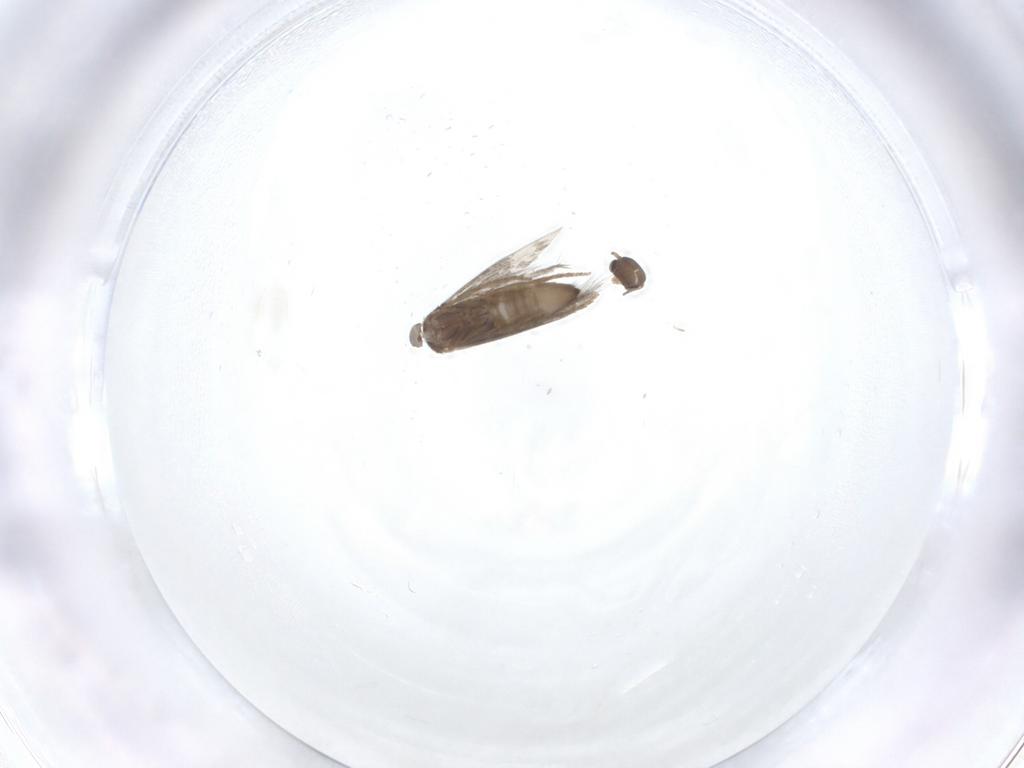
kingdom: Animalia
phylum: Arthropoda
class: Insecta
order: Lepidoptera
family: Heliozelidae
